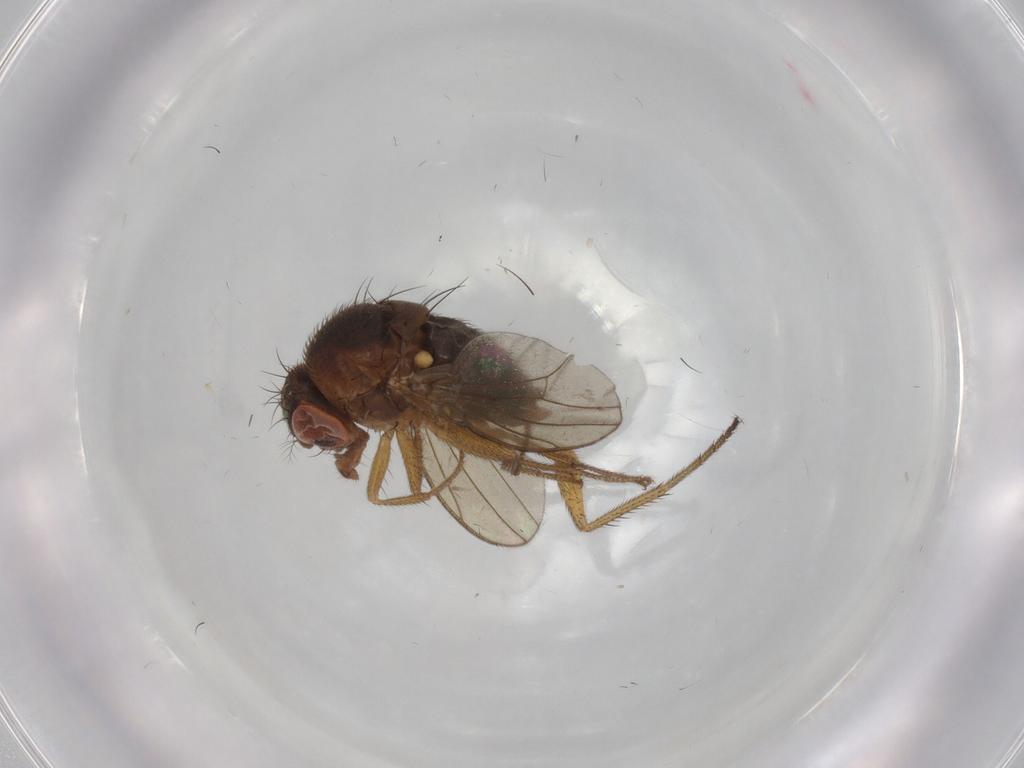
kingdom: Animalia
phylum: Arthropoda
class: Insecta
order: Diptera
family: Drosophilidae
